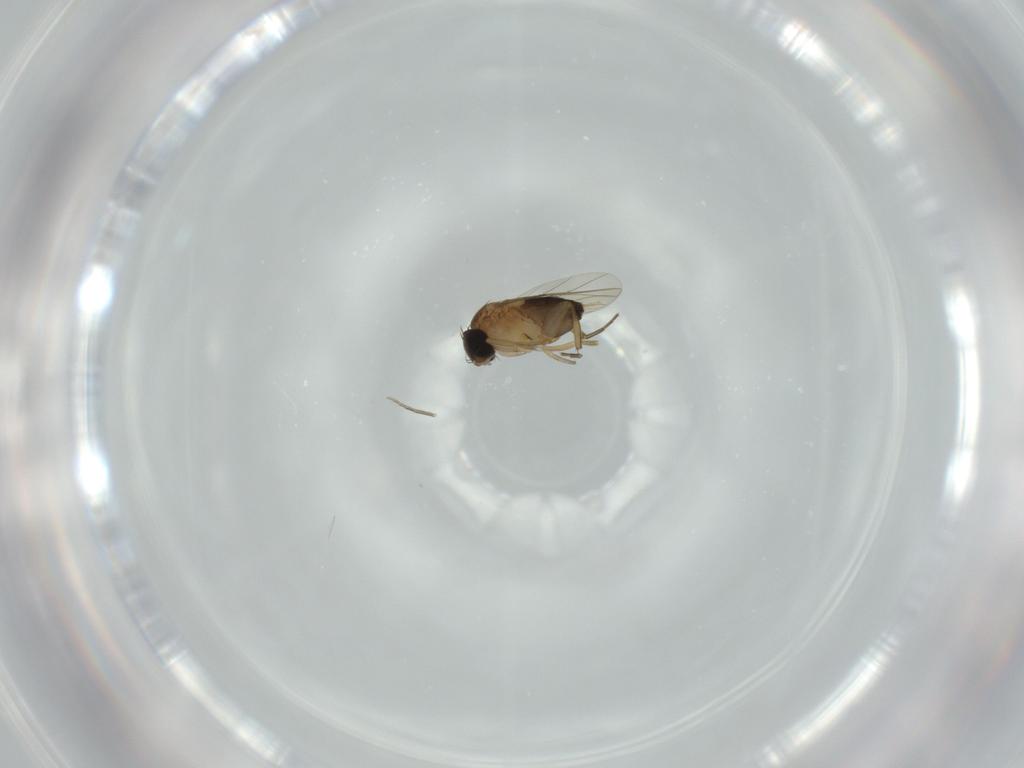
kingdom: Animalia
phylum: Arthropoda
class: Insecta
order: Diptera
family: Phoridae
